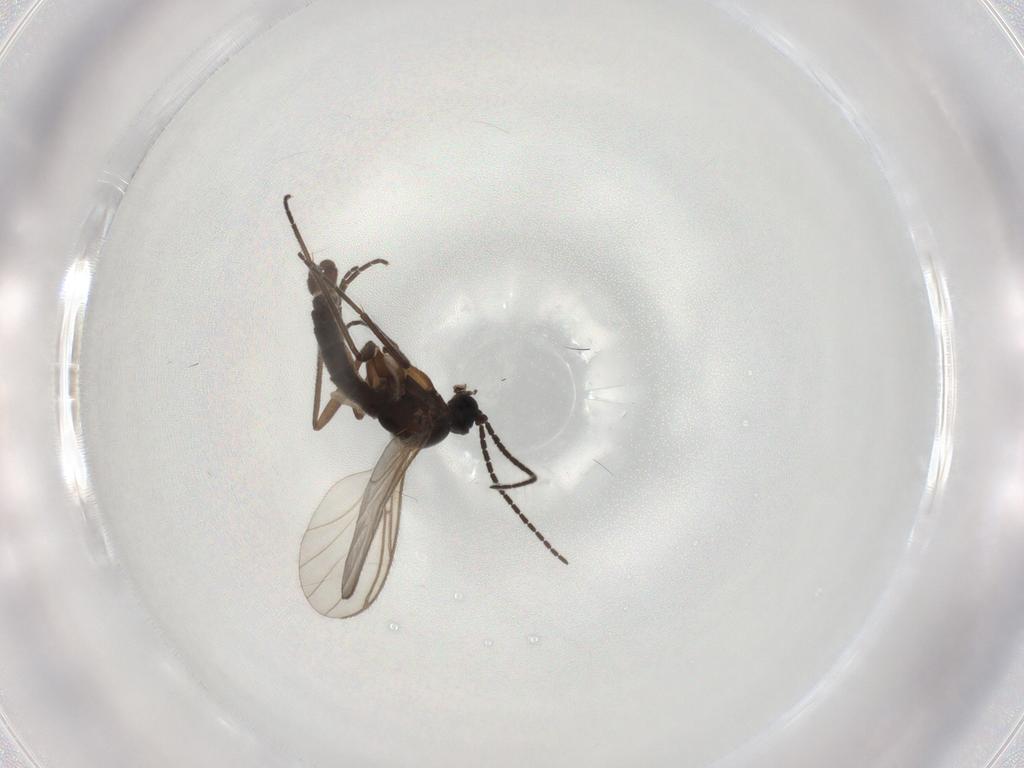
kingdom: Animalia
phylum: Arthropoda
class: Insecta
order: Diptera
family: Sciaridae
